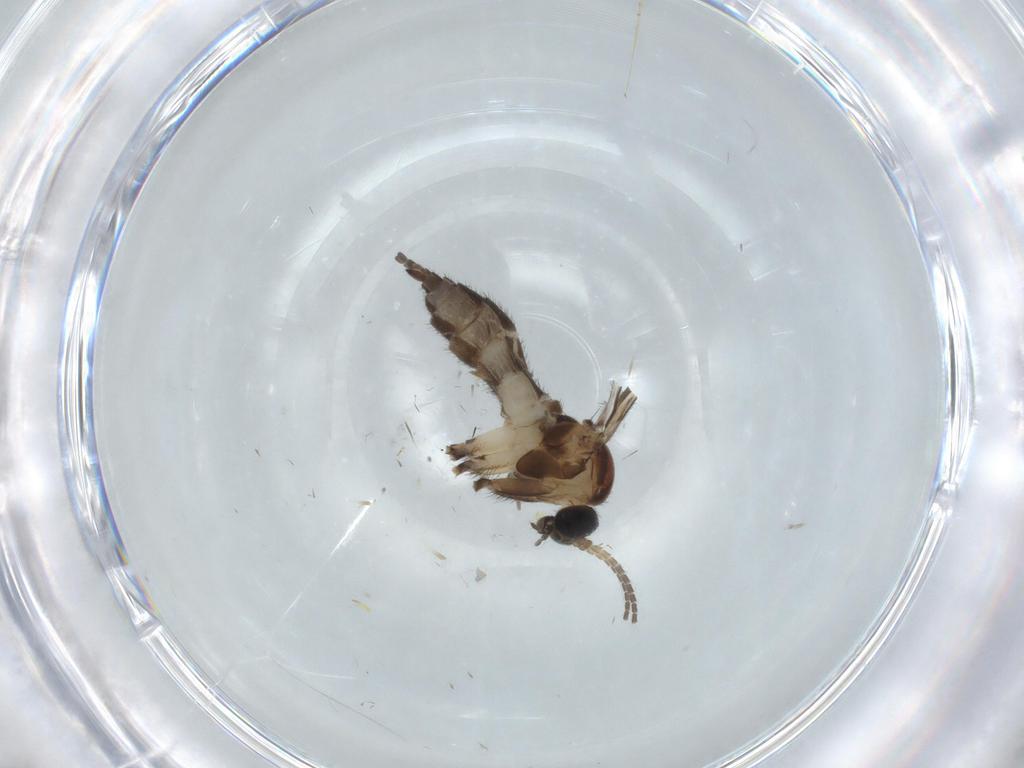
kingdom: Animalia
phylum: Arthropoda
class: Insecta
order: Diptera
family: Sciaridae
